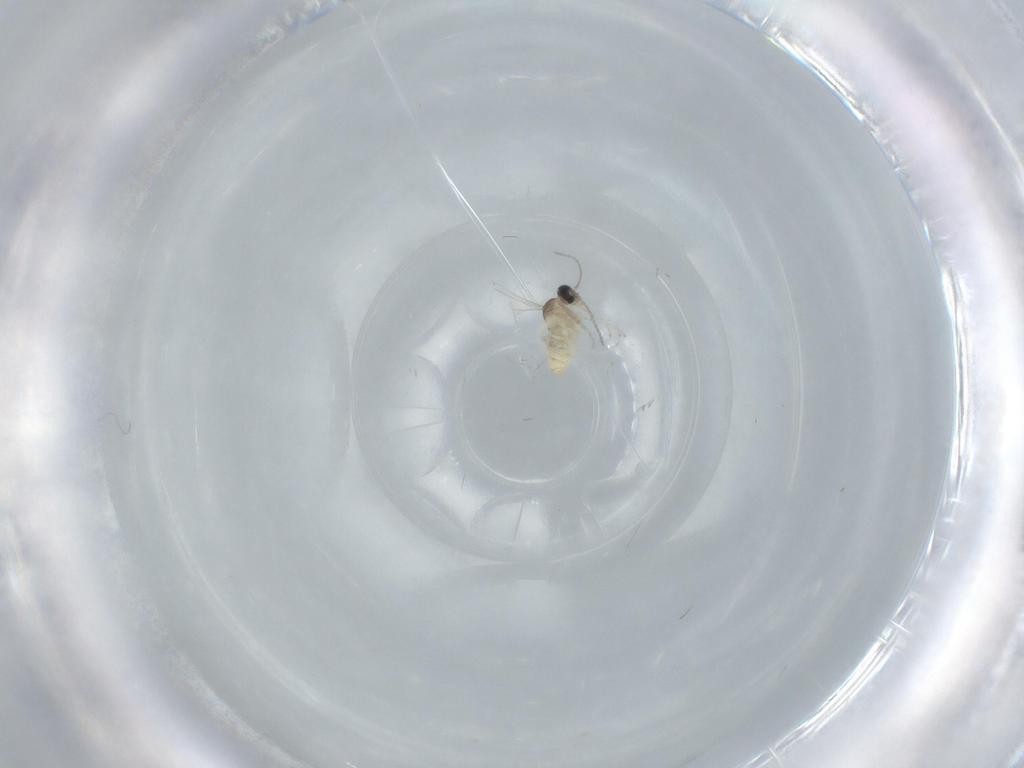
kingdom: Animalia
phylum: Arthropoda
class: Insecta
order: Diptera
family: Cecidomyiidae
